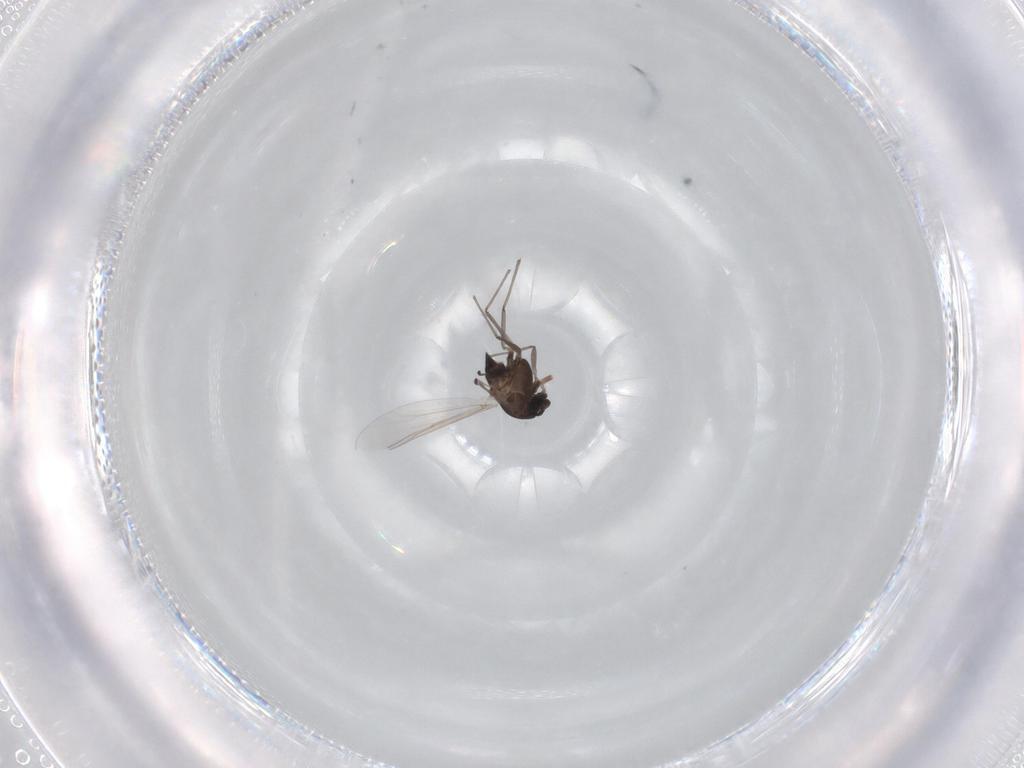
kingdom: Animalia
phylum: Arthropoda
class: Insecta
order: Diptera
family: Chironomidae
